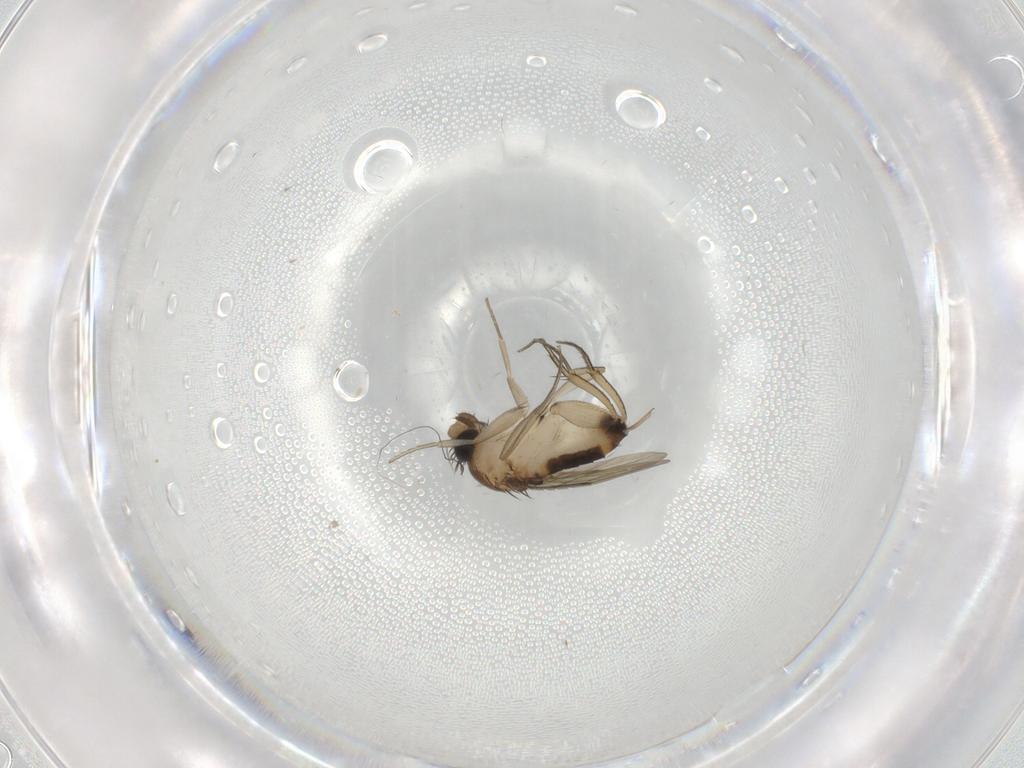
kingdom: Animalia
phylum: Arthropoda
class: Insecta
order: Diptera
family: Phoridae
